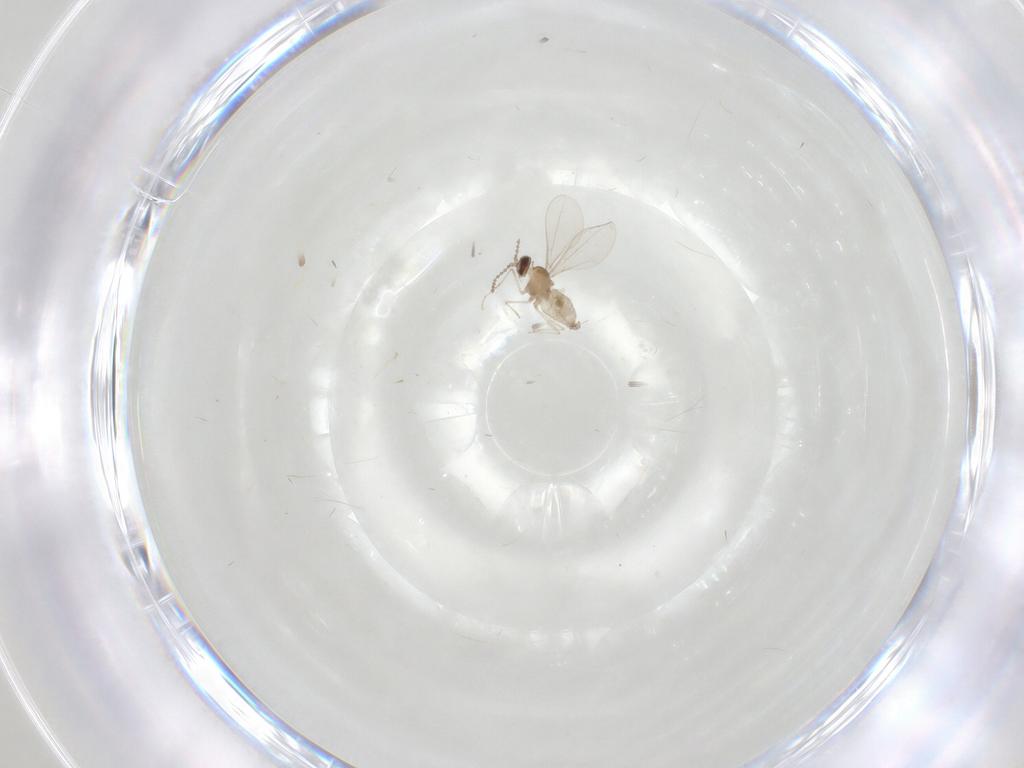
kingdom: Animalia
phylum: Arthropoda
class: Insecta
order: Diptera
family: Cecidomyiidae
